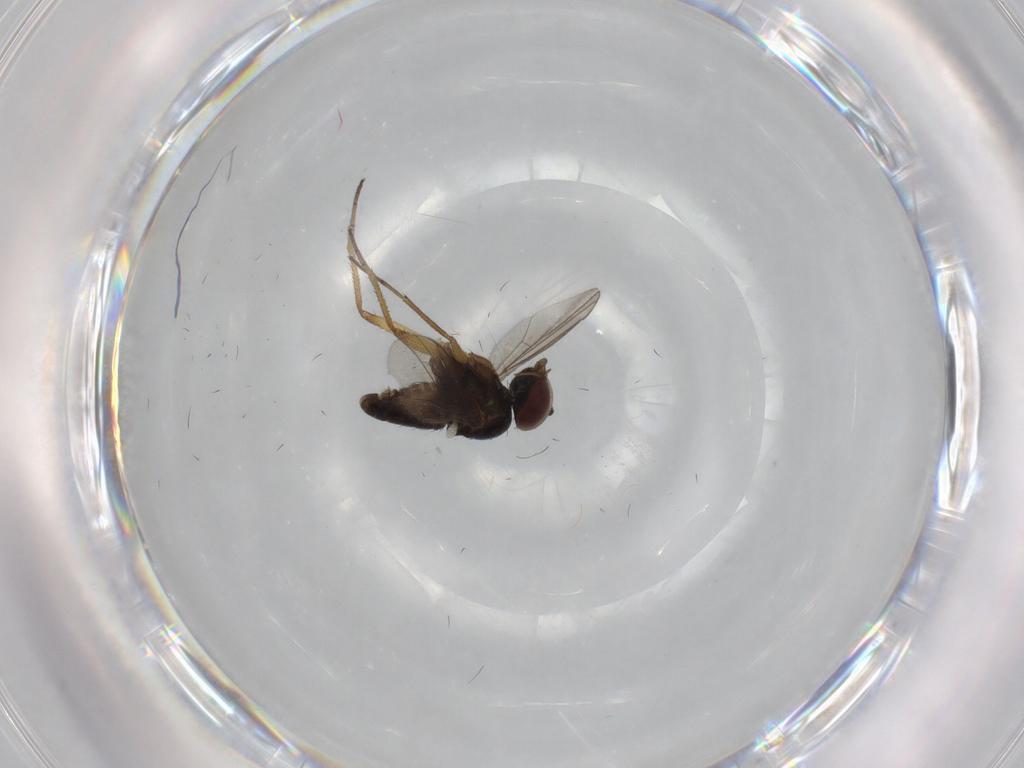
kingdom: Animalia
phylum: Arthropoda
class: Insecta
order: Diptera
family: Dolichopodidae
